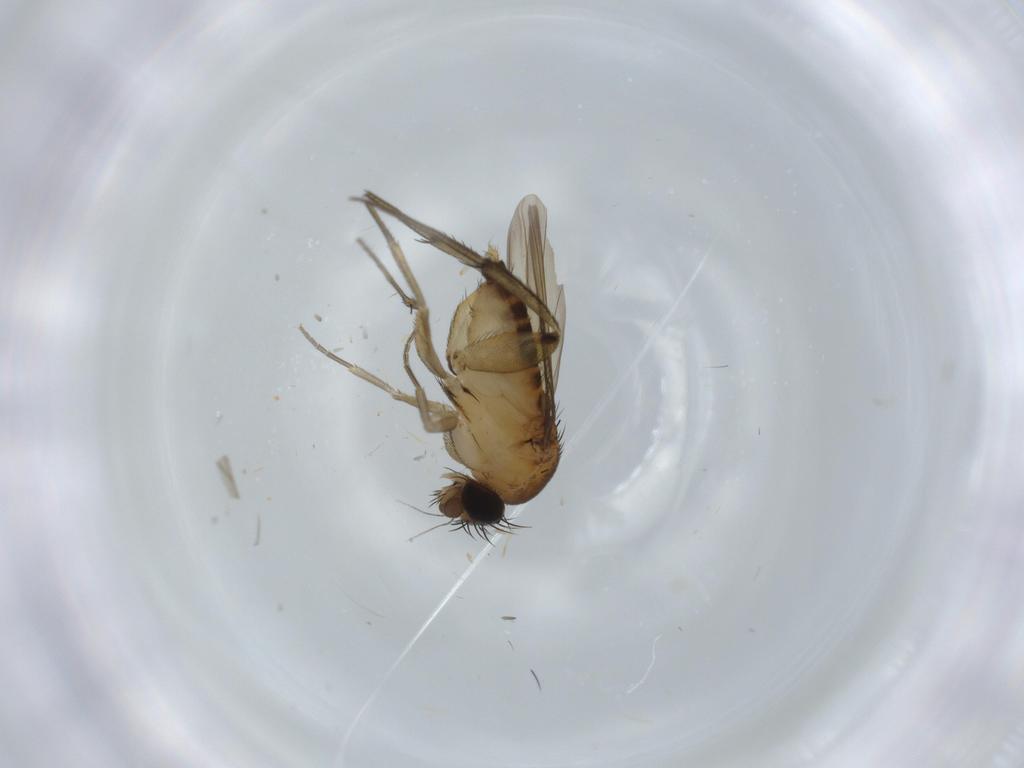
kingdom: Animalia
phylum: Arthropoda
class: Insecta
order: Diptera
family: Phoridae
